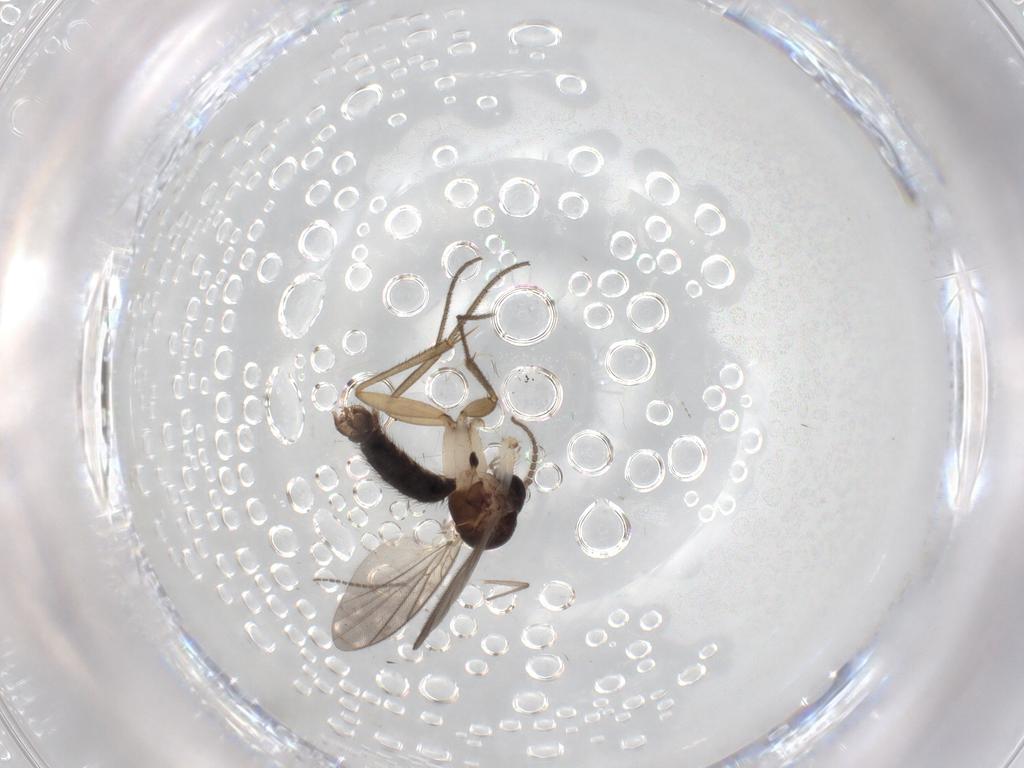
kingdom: Animalia
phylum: Arthropoda
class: Insecta
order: Diptera
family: Mycetophilidae
